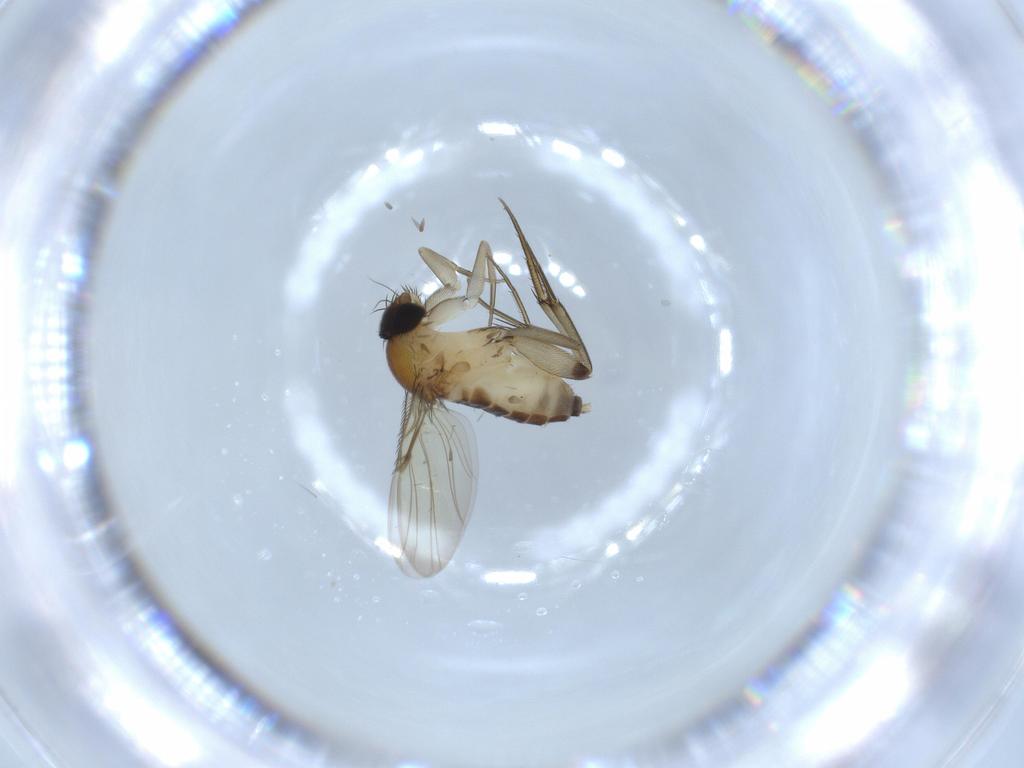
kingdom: Animalia
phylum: Arthropoda
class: Insecta
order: Diptera
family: Phoridae
